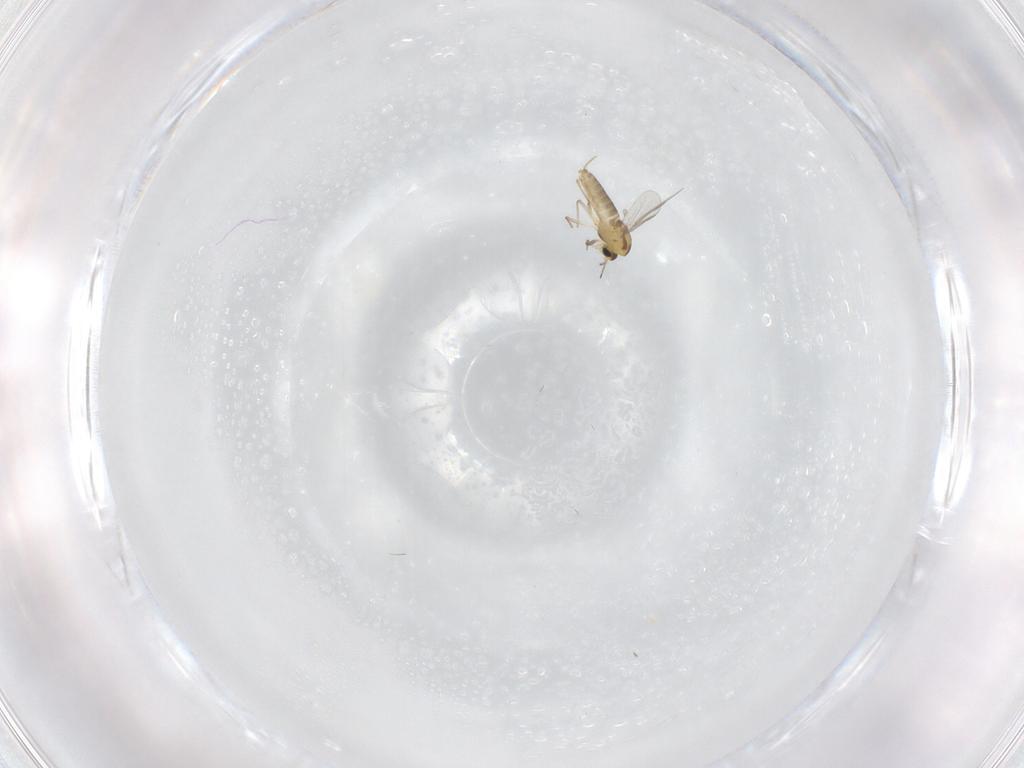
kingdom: Animalia
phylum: Arthropoda
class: Insecta
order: Diptera
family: Chironomidae
